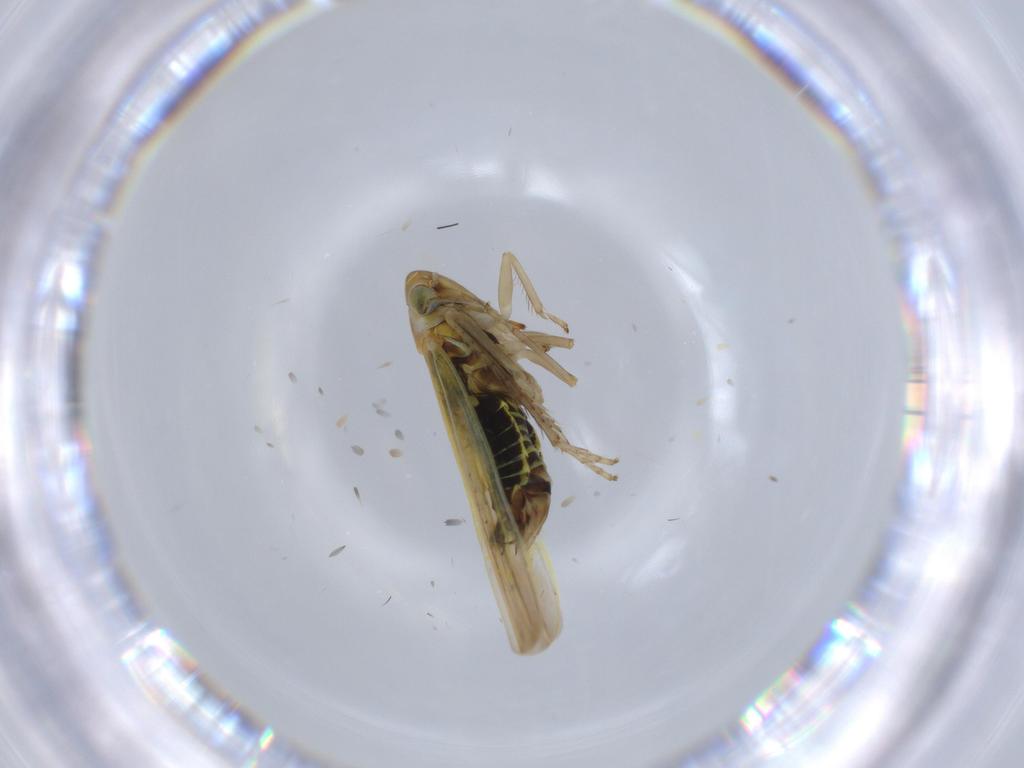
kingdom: Animalia
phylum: Arthropoda
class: Insecta
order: Hemiptera
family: Cicadellidae
